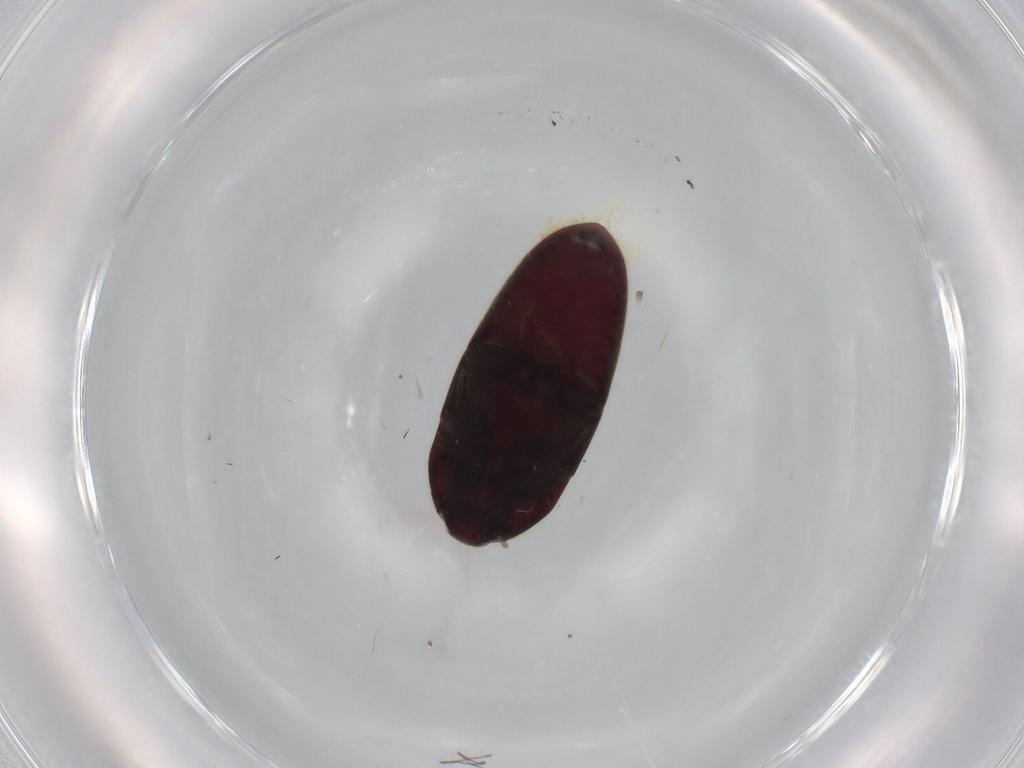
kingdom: Animalia
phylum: Arthropoda
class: Insecta
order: Coleoptera
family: Throscidae
